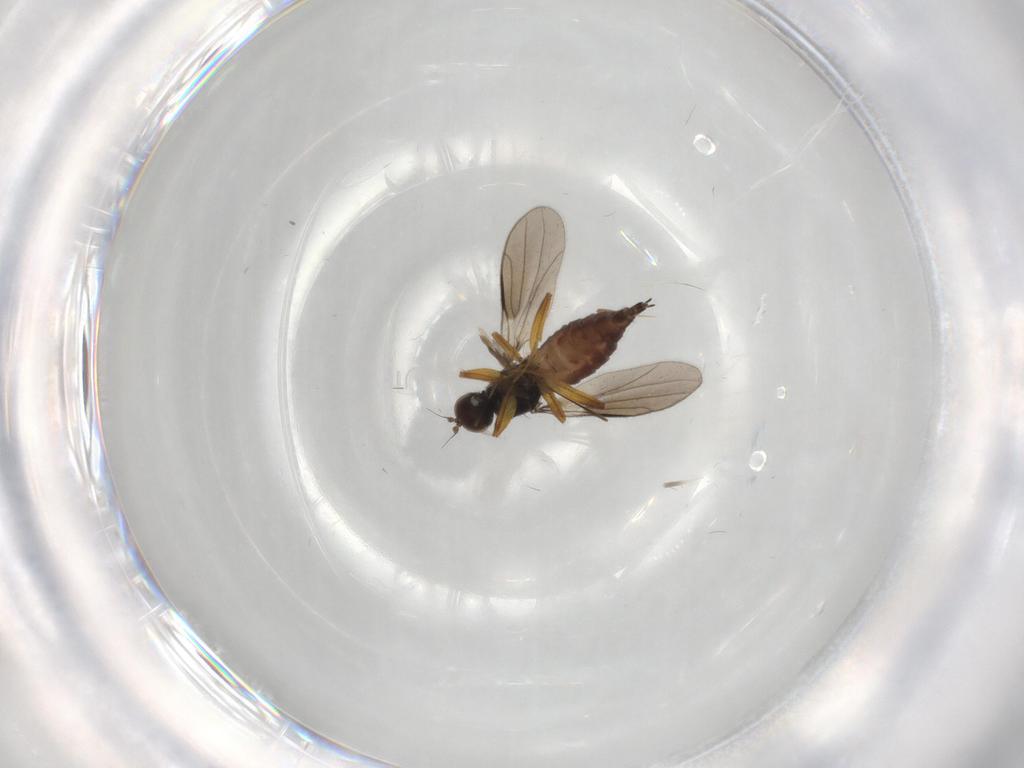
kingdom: Animalia
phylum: Arthropoda
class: Insecta
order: Diptera
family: Hybotidae
